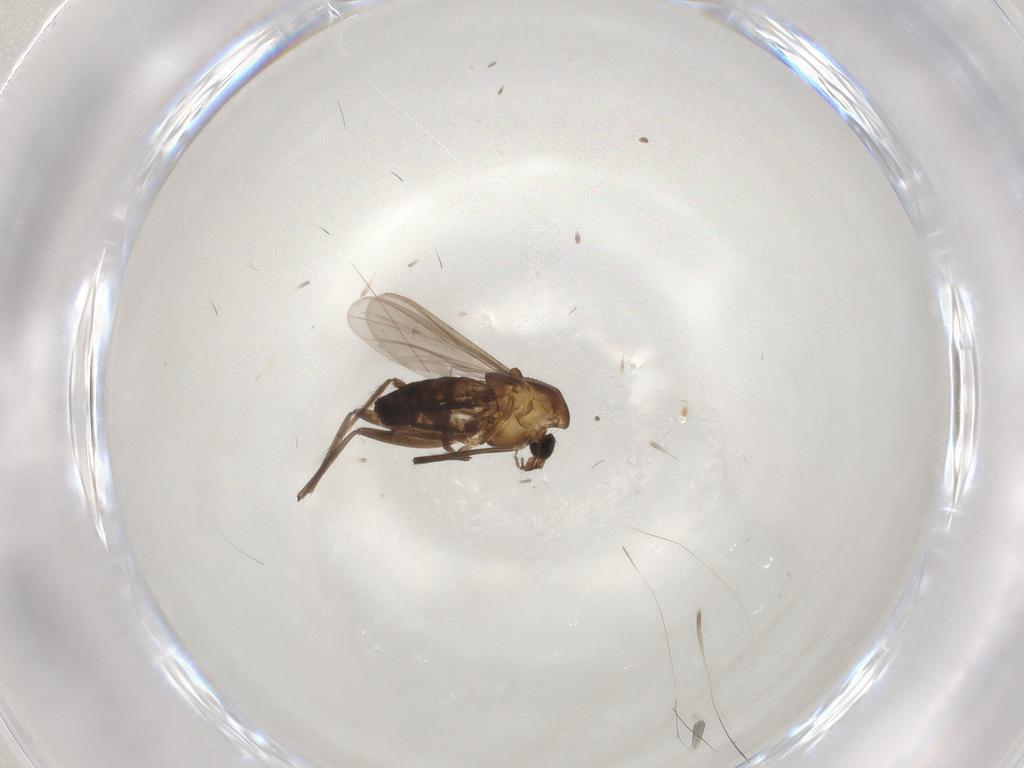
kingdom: Animalia
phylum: Arthropoda
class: Insecta
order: Diptera
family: Chironomidae
